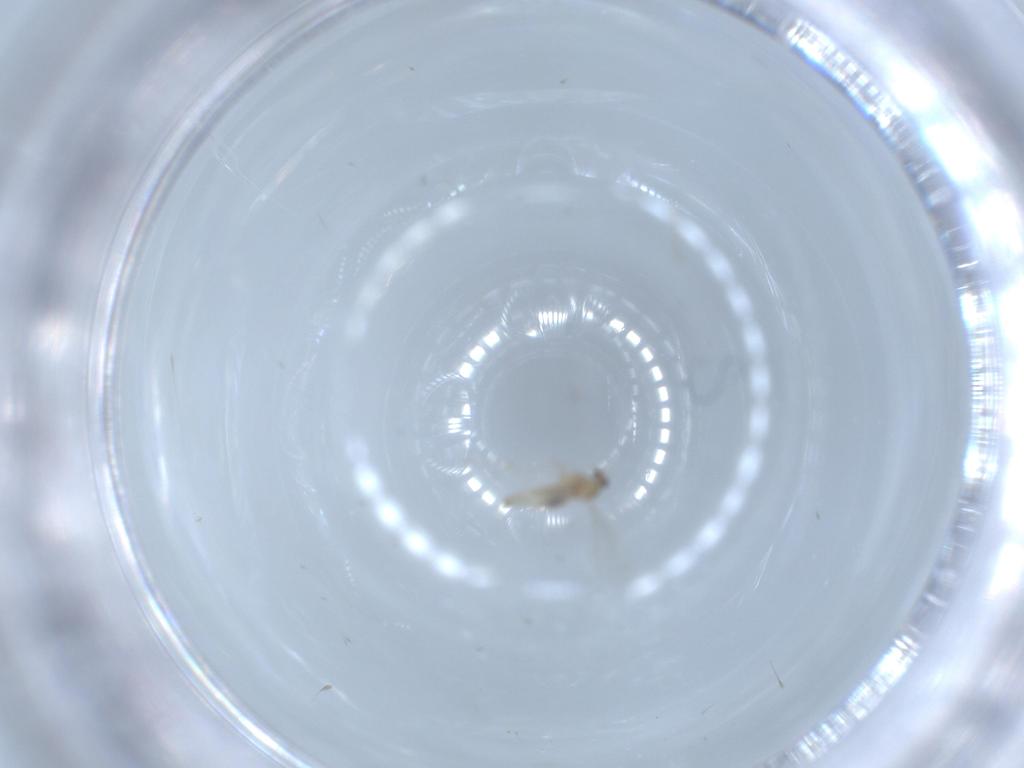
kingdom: Animalia
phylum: Arthropoda
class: Insecta
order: Diptera
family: Cecidomyiidae
